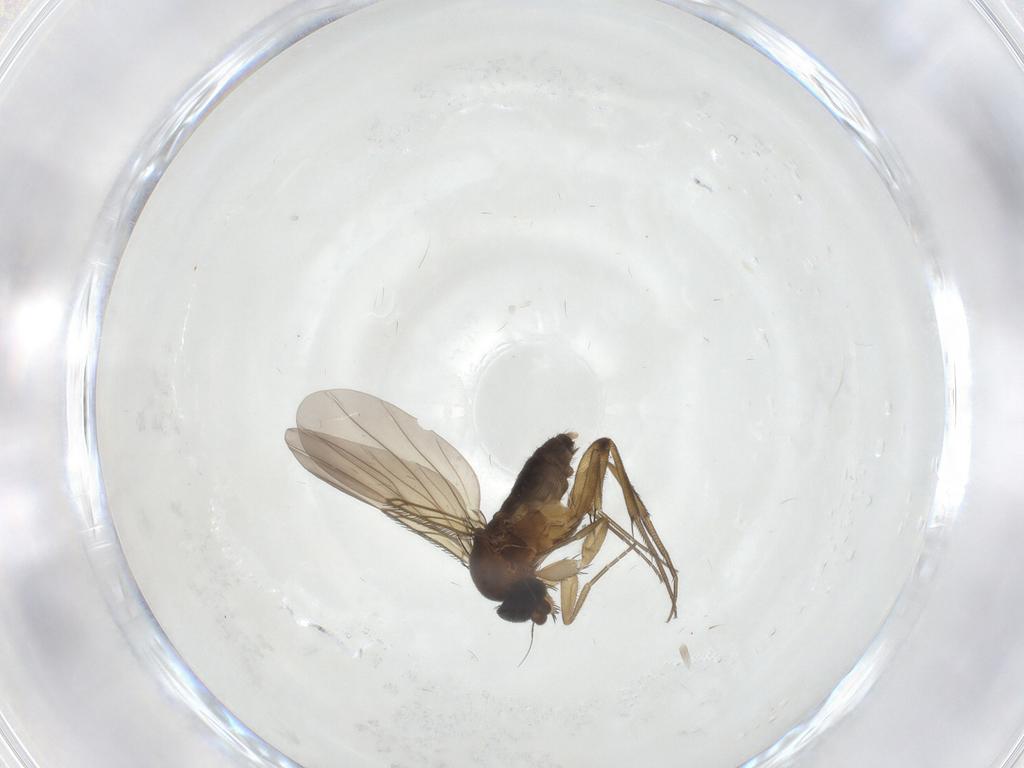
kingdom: Animalia
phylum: Arthropoda
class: Insecta
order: Diptera
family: Phoridae
